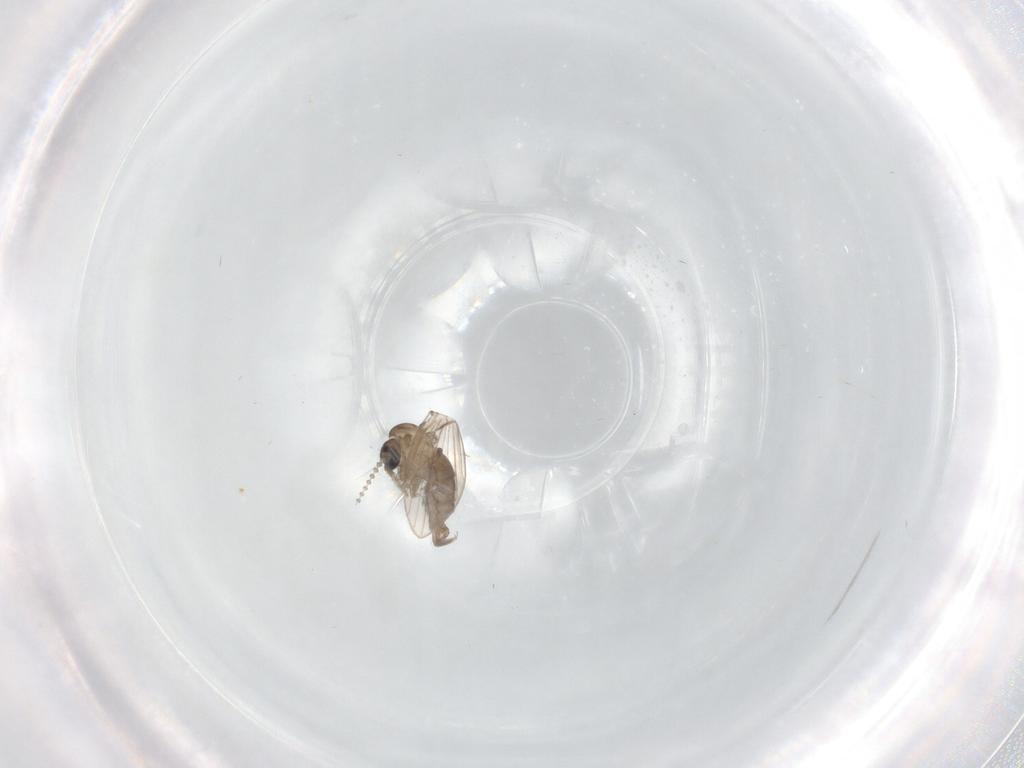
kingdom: Animalia
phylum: Arthropoda
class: Insecta
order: Diptera
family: Psychodidae
